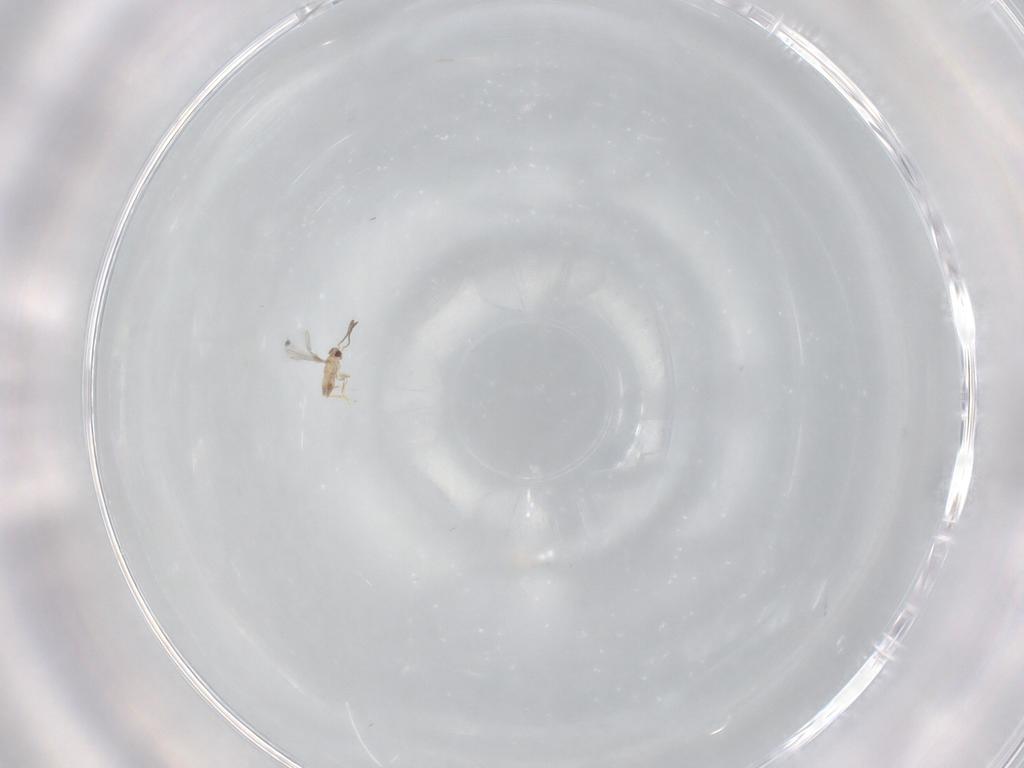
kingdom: Animalia
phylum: Arthropoda
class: Insecta
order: Hymenoptera
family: Mymaridae
